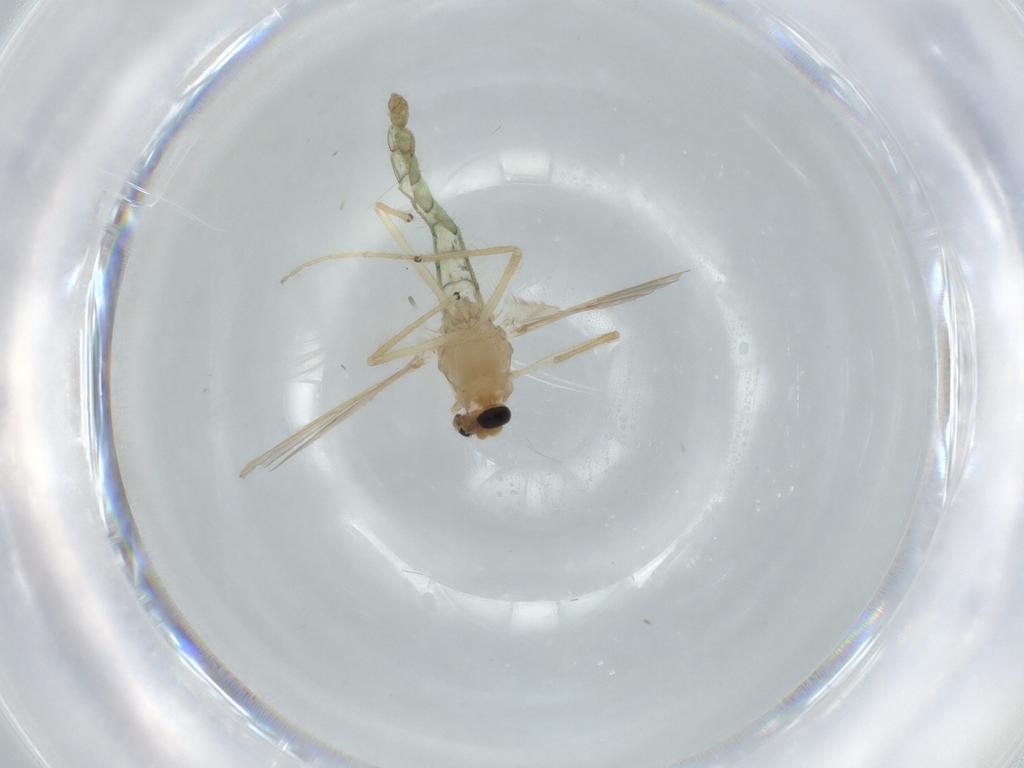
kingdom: Animalia
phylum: Arthropoda
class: Insecta
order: Diptera
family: Chironomidae
